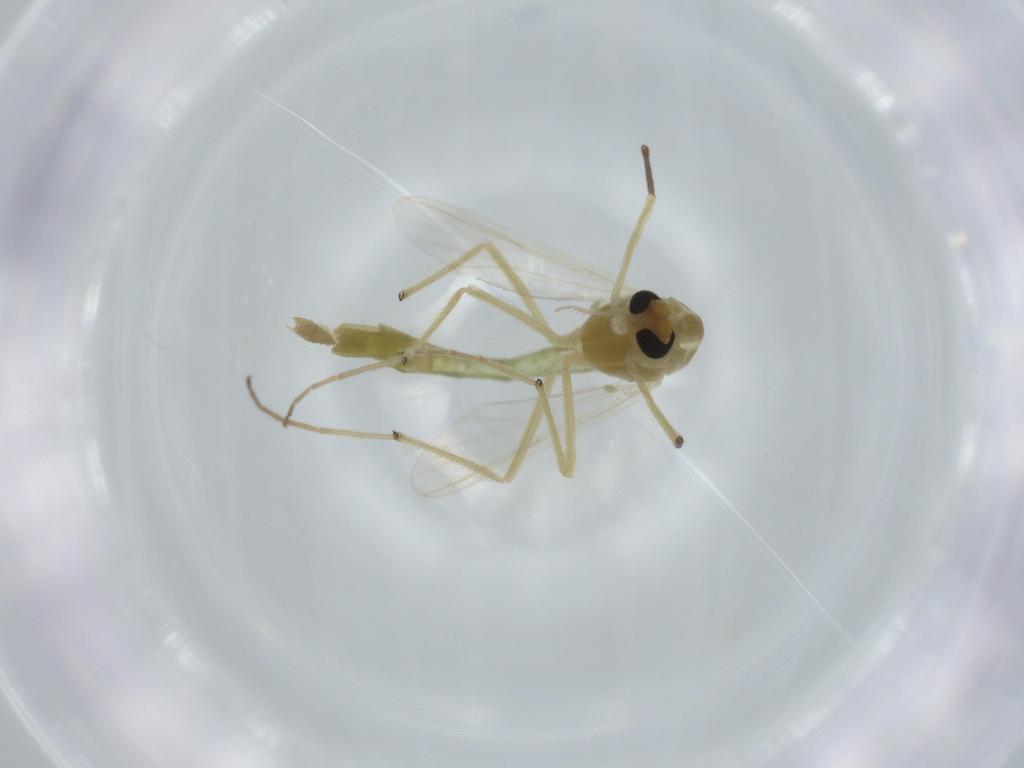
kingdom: Animalia
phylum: Arthropoda
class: Insecta
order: Diptera
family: Chironomidae
